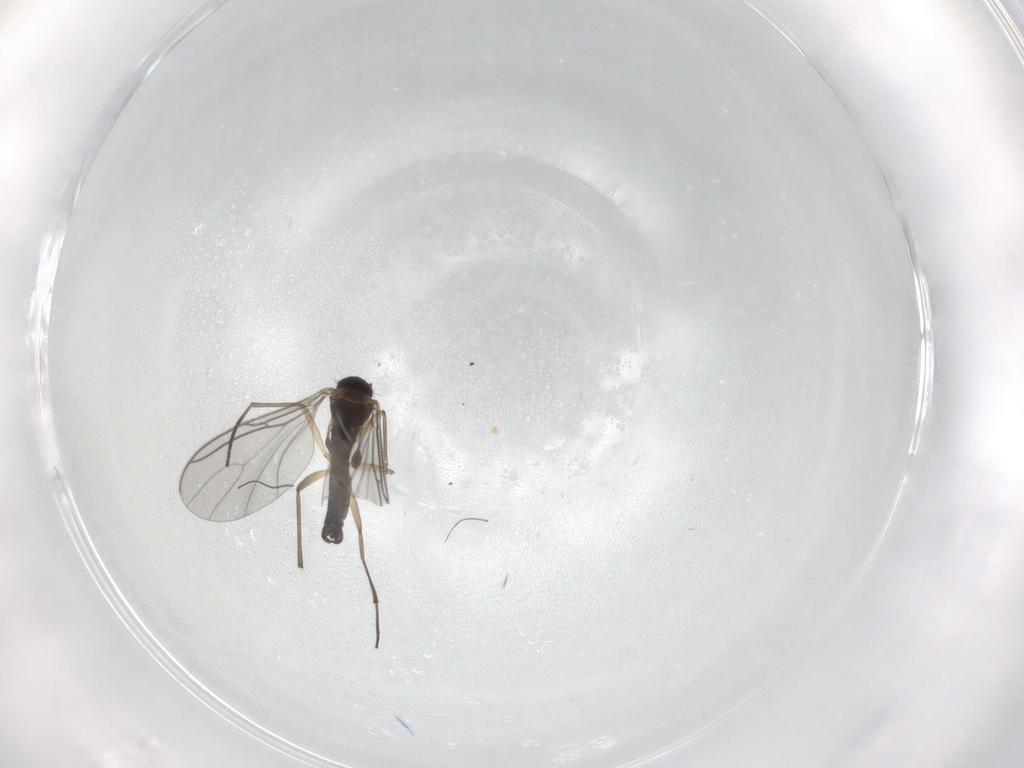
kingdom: Animalia
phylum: Arthropoda
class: Insecta
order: Diptera
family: Sciaridae
